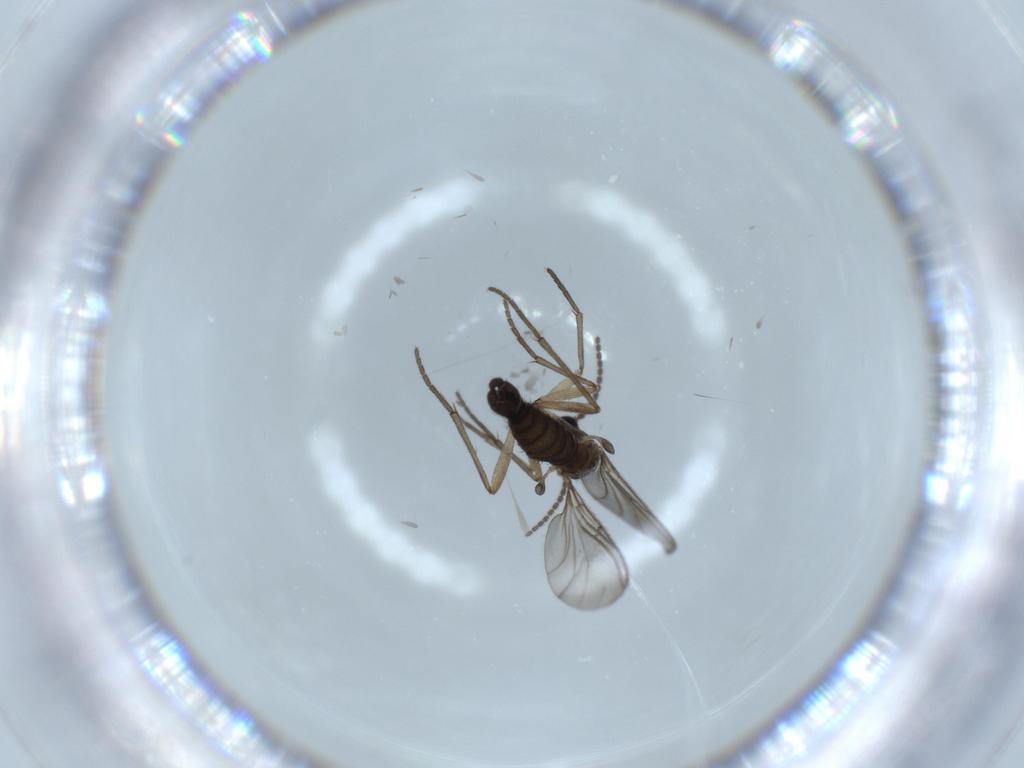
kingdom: Animalia
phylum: Arthropoda
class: Insecta
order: Diptera
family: Sciaridae
